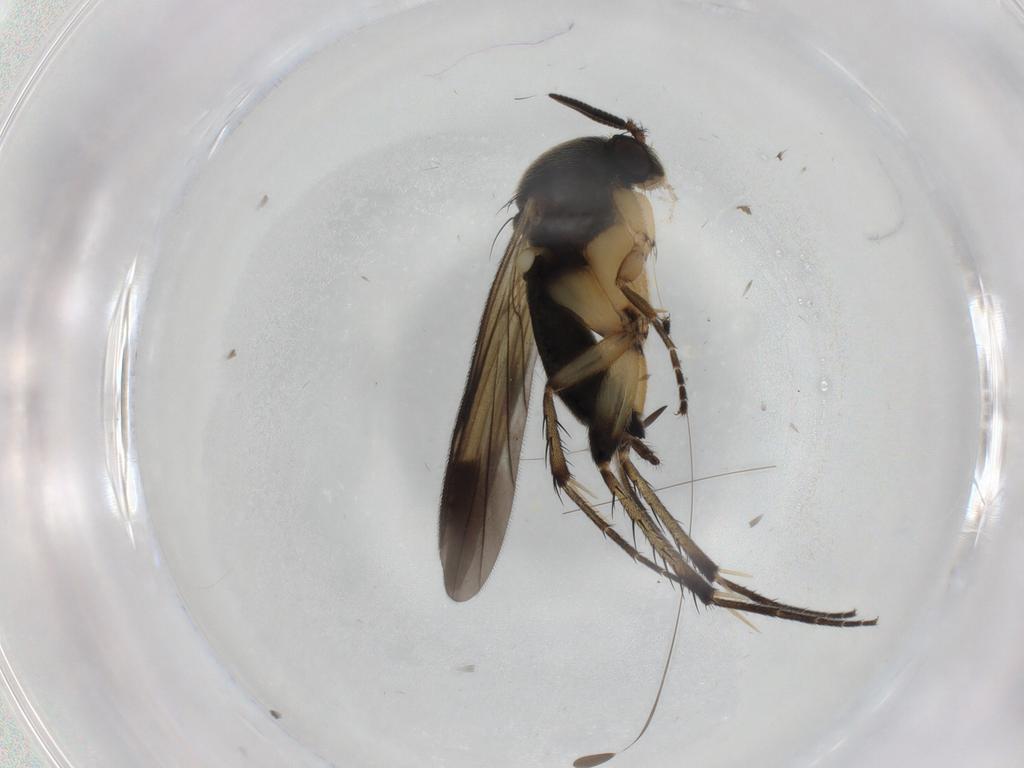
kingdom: Animalia
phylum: Arthropoda
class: Insecta
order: Diptera
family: Mycetophilidae
